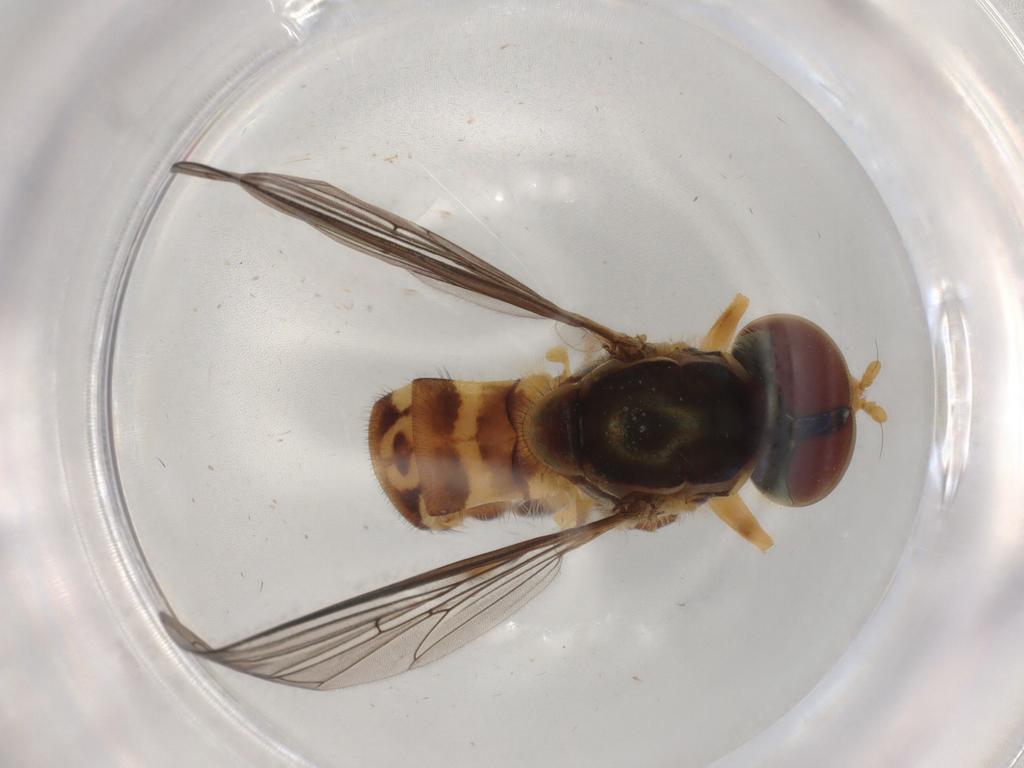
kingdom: Animalia
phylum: Arthropoda
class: Insecta
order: Diptera
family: Syrphidae
